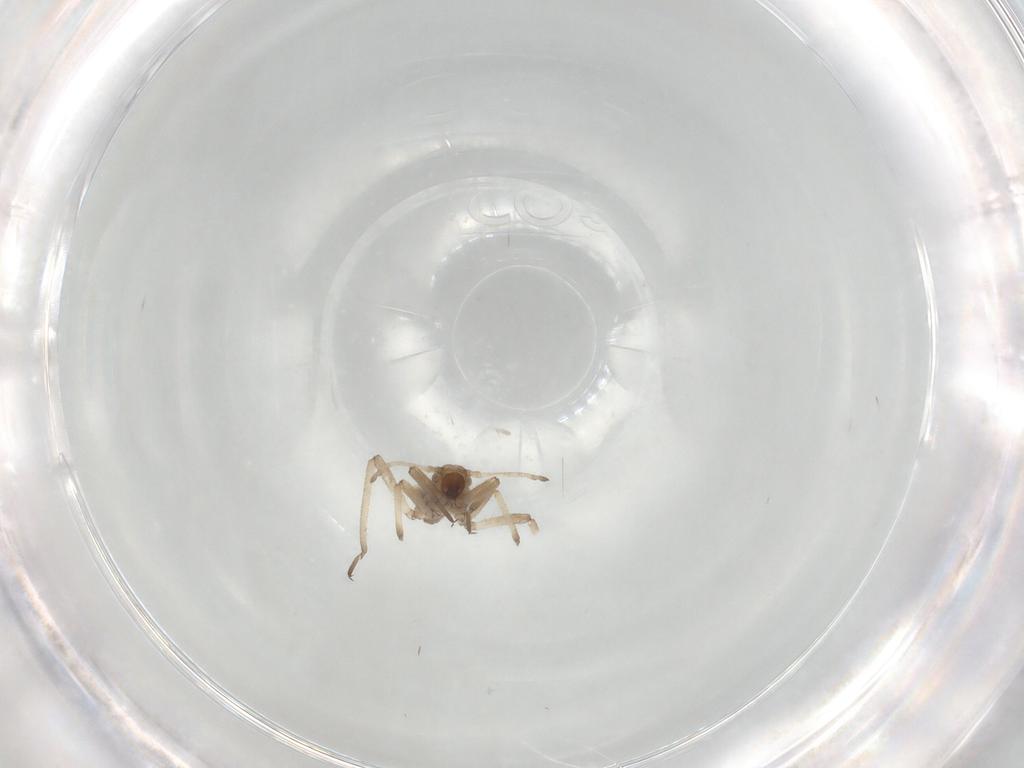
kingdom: Animalia
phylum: Arthropoda
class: Insecta
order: Hemiptera
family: Aphididae
